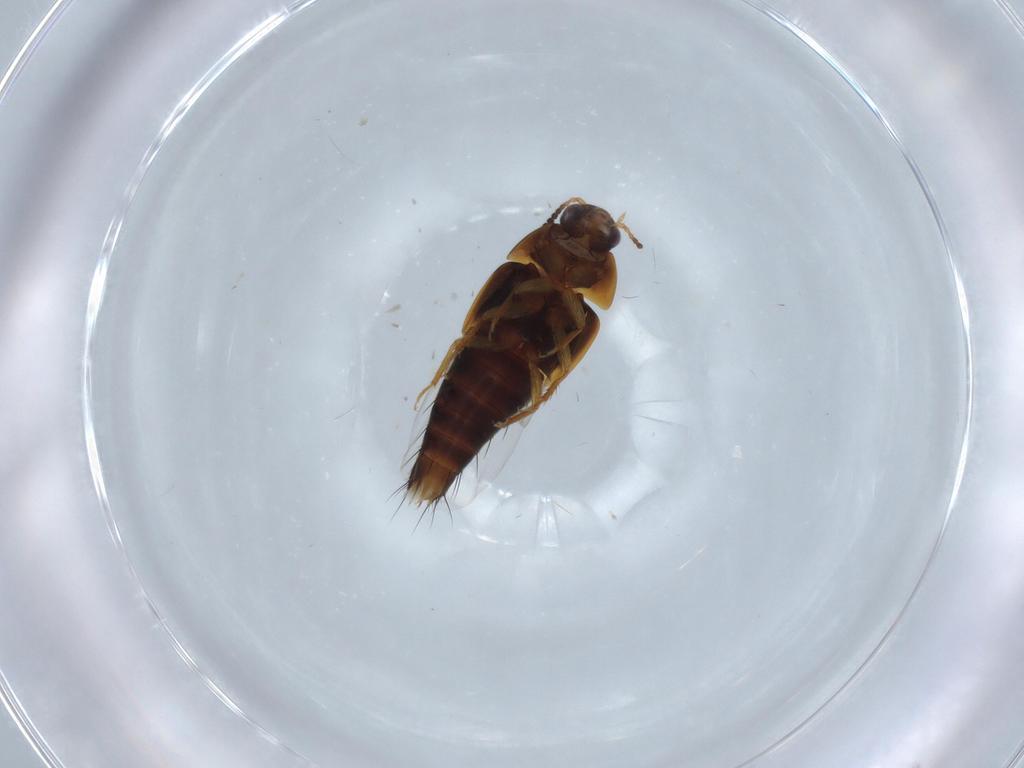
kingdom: Animalia
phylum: Arthropoda
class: Insecta
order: Coleoptera
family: Staphylinidae
